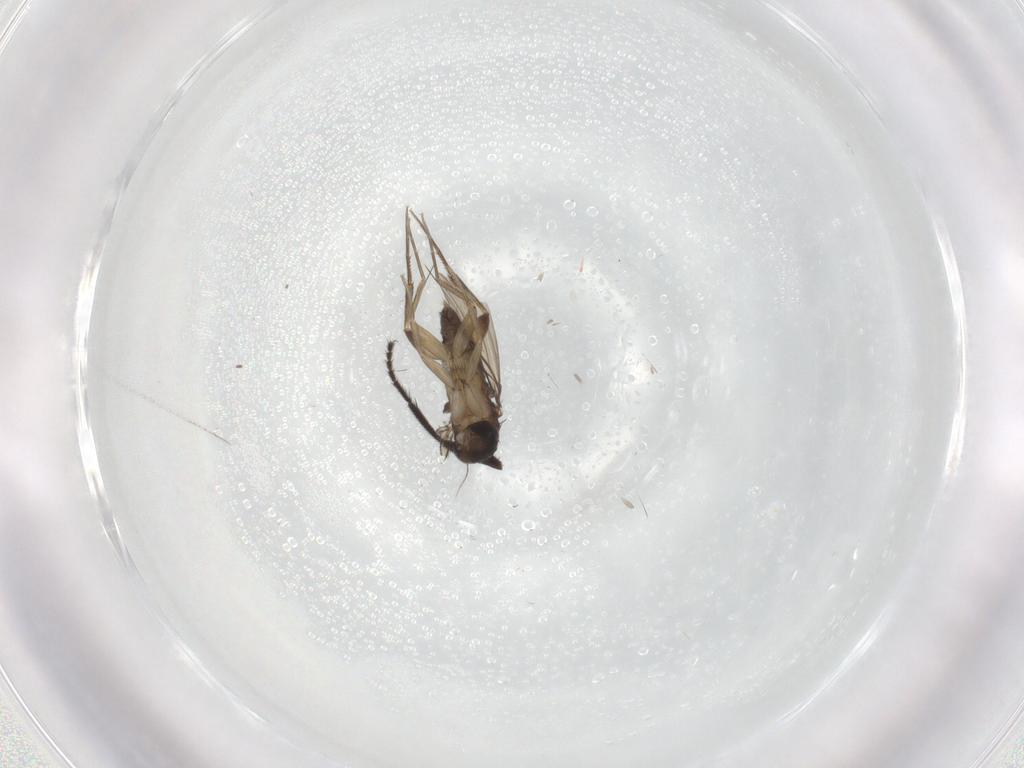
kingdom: Animalia
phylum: Arthropoda
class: Insecta
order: Diptera
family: Phoridae
